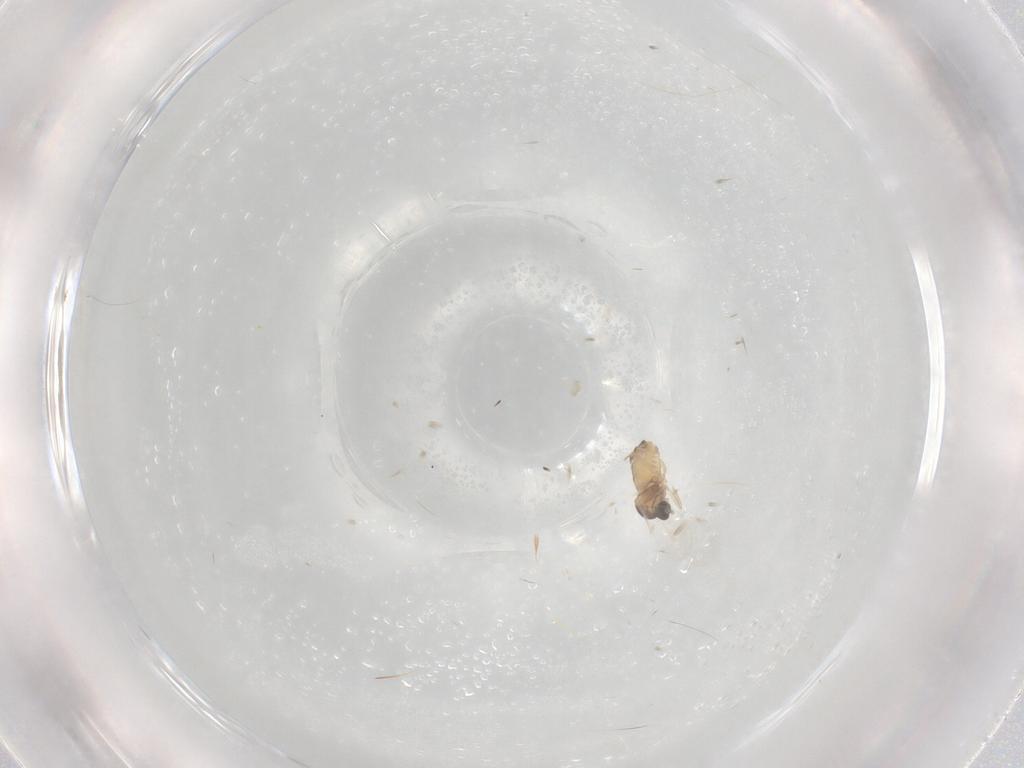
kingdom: Animalia
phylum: Arthropoda
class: Insecta
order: Diptera
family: Cecidomyiidae
